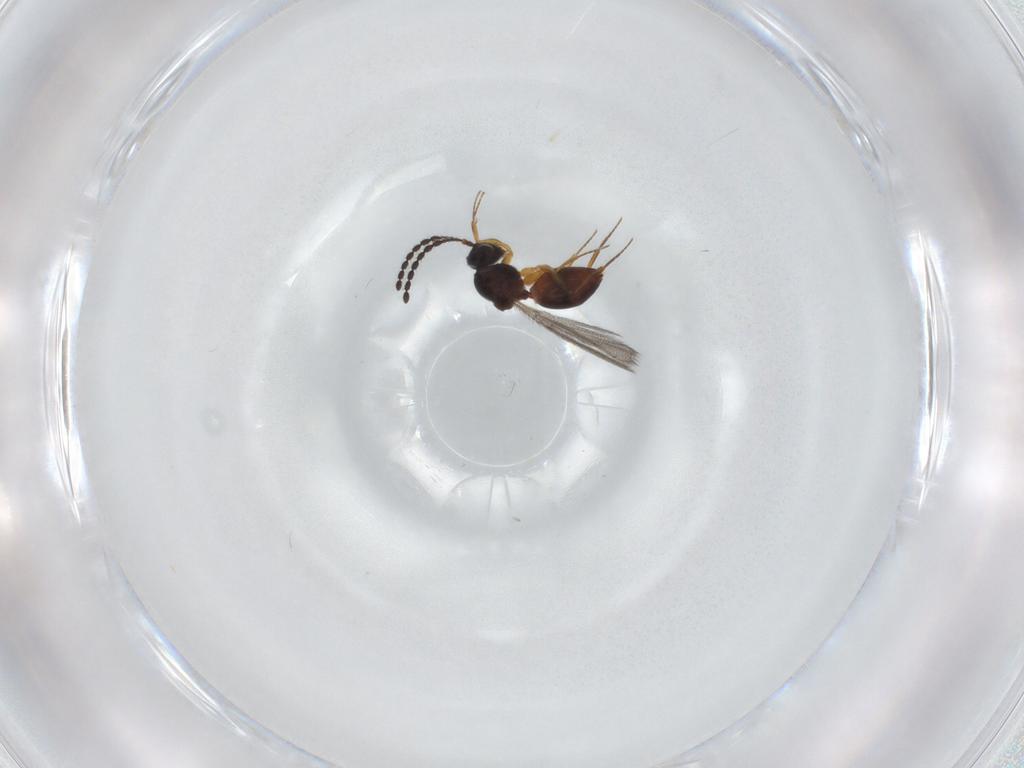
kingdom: Animalia
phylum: Arthropoda
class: Insecta
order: Hymenoptera
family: Figitidae
